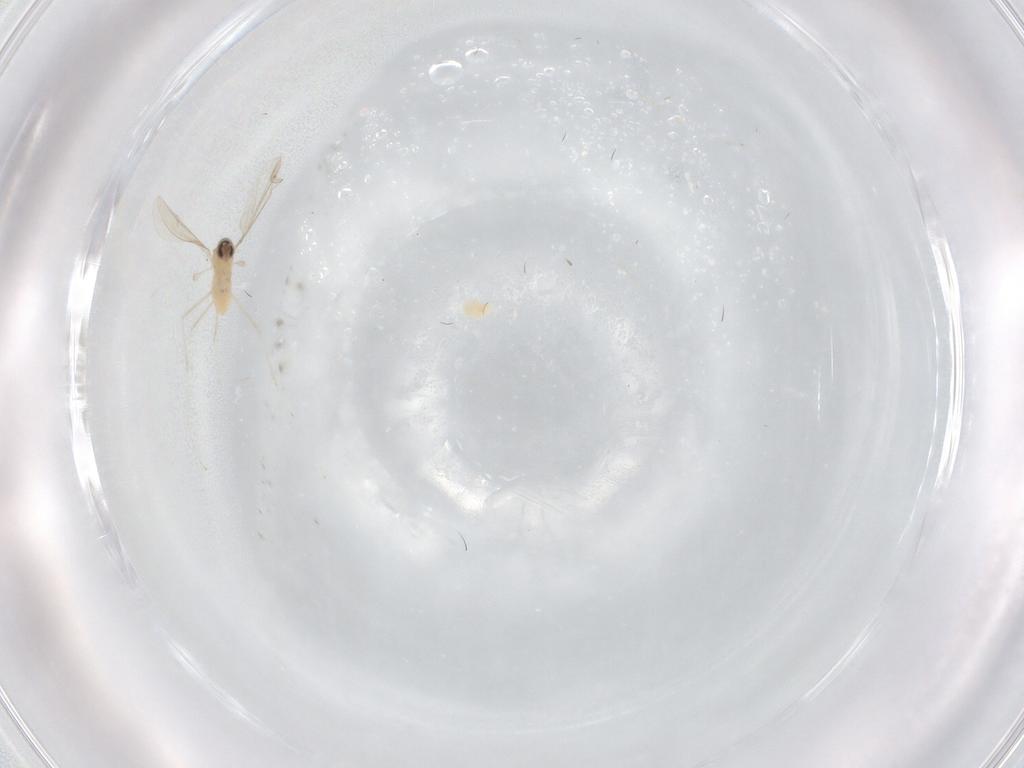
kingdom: Animalia
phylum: Arthropoda
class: Insecta
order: Diptera
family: Cecidomyiidae
